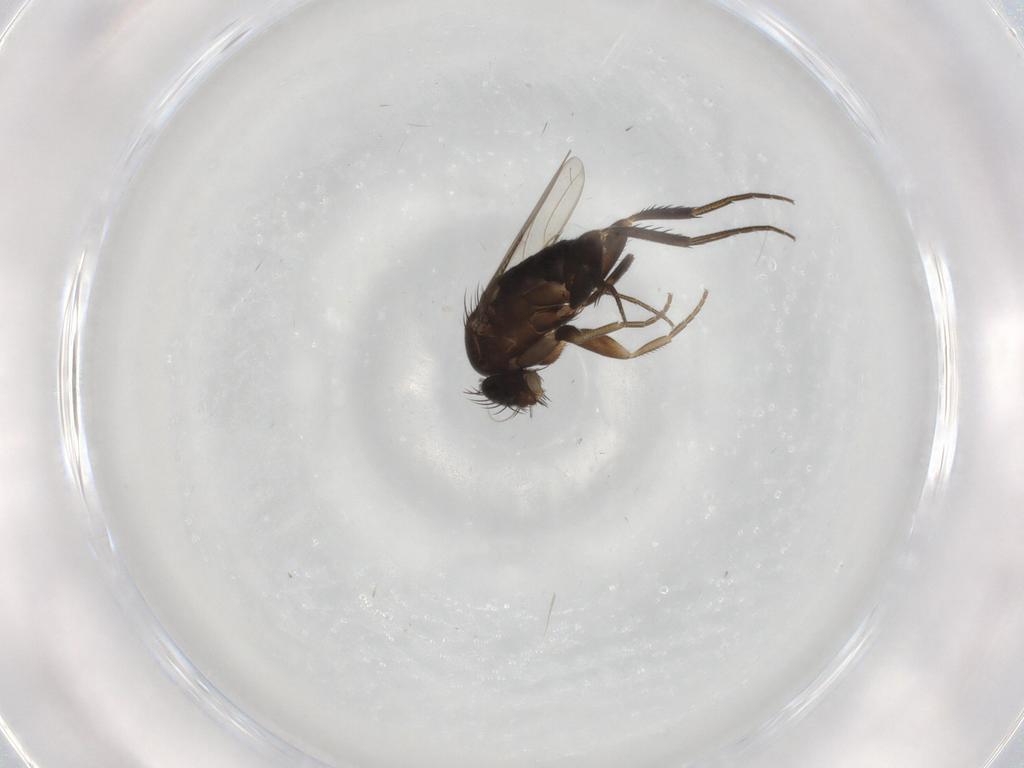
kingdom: Animalia
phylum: Arthropoda
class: Insecta
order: Diptera
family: Phoridae
